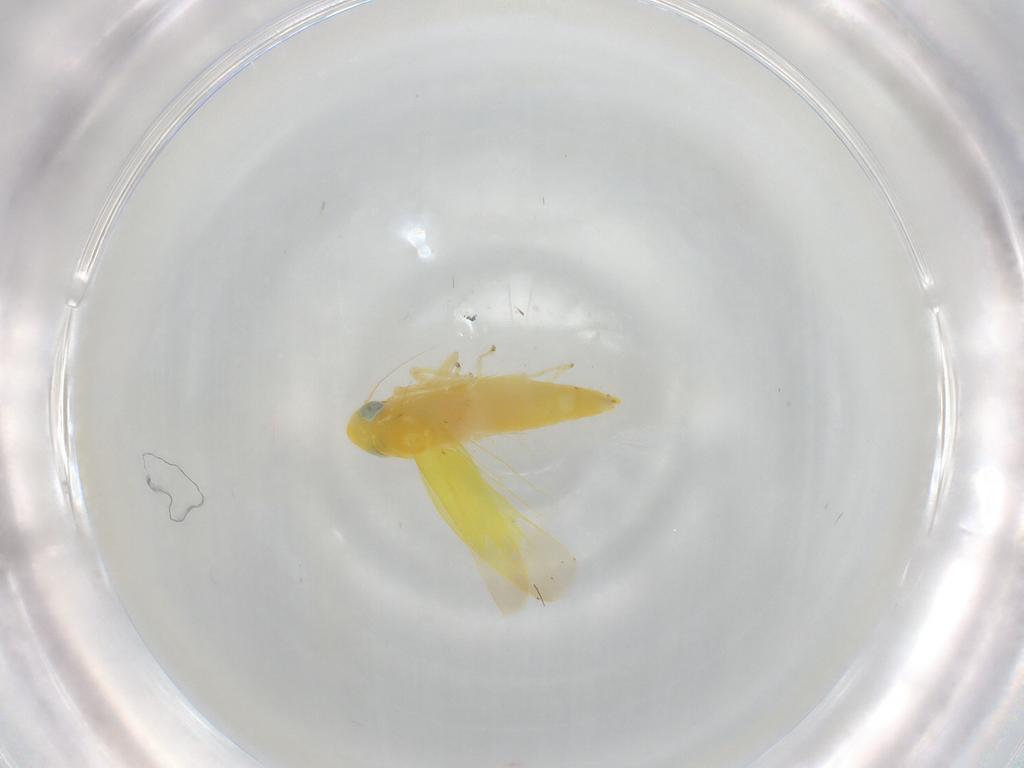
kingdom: Animalia
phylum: Arthropoda
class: Insecta
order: Hemiptera
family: Cicadellidae
